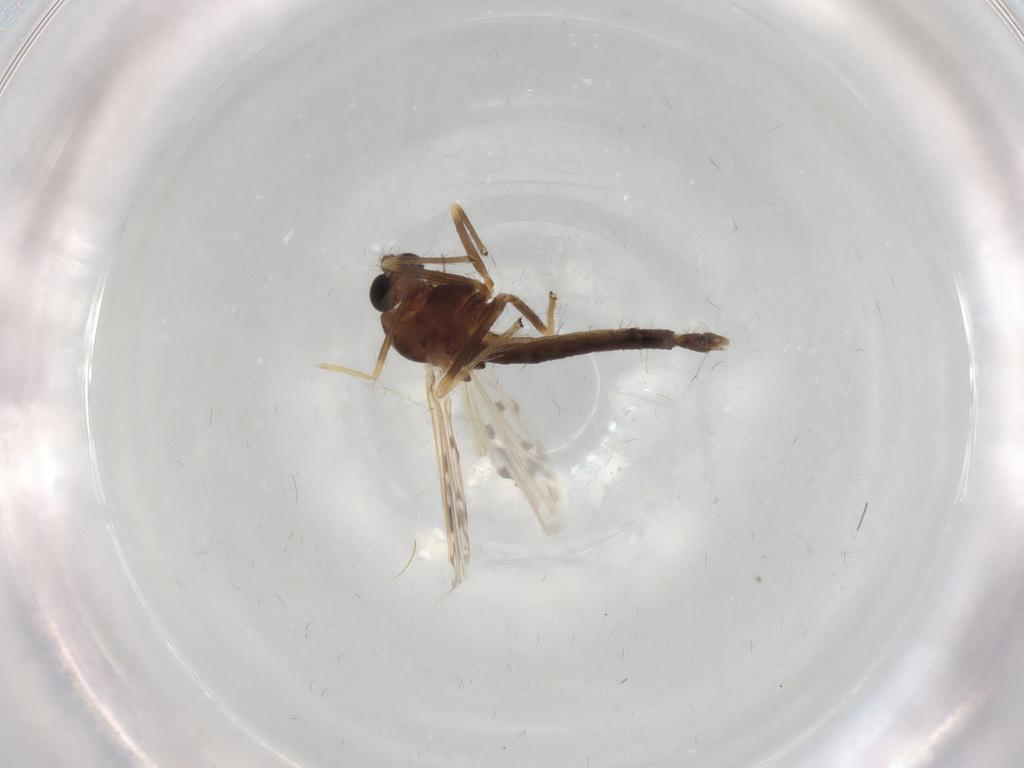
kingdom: Animalia
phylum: Arthropoda
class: Insecta
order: Diptera
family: Chironomidae
